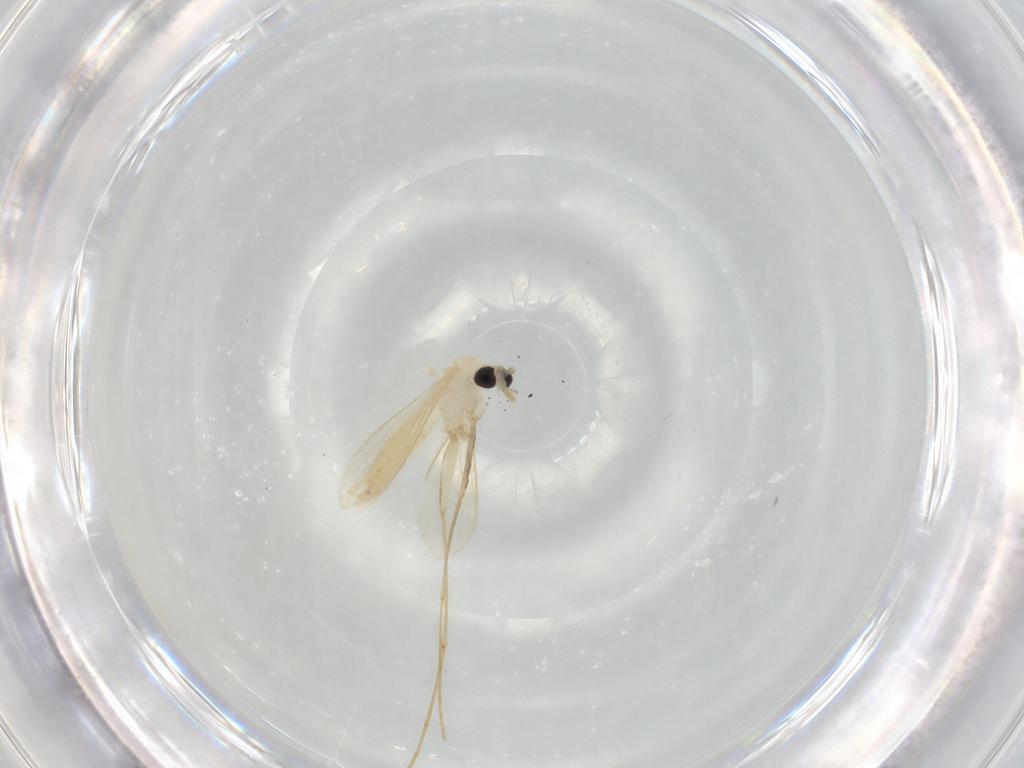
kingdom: Animalia
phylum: Arthropoda
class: Insecta
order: Diptera
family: Psychodidae
